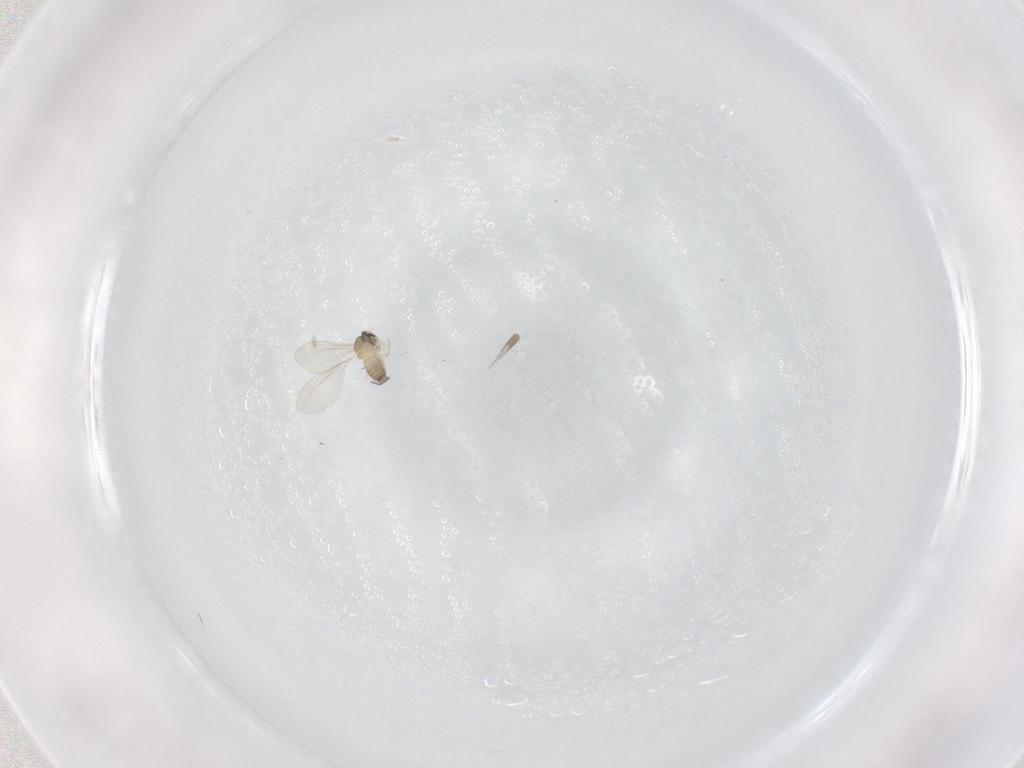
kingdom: Animalia
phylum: Arthropoda
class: Insecta
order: Diptera
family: Cecidomyiidae
